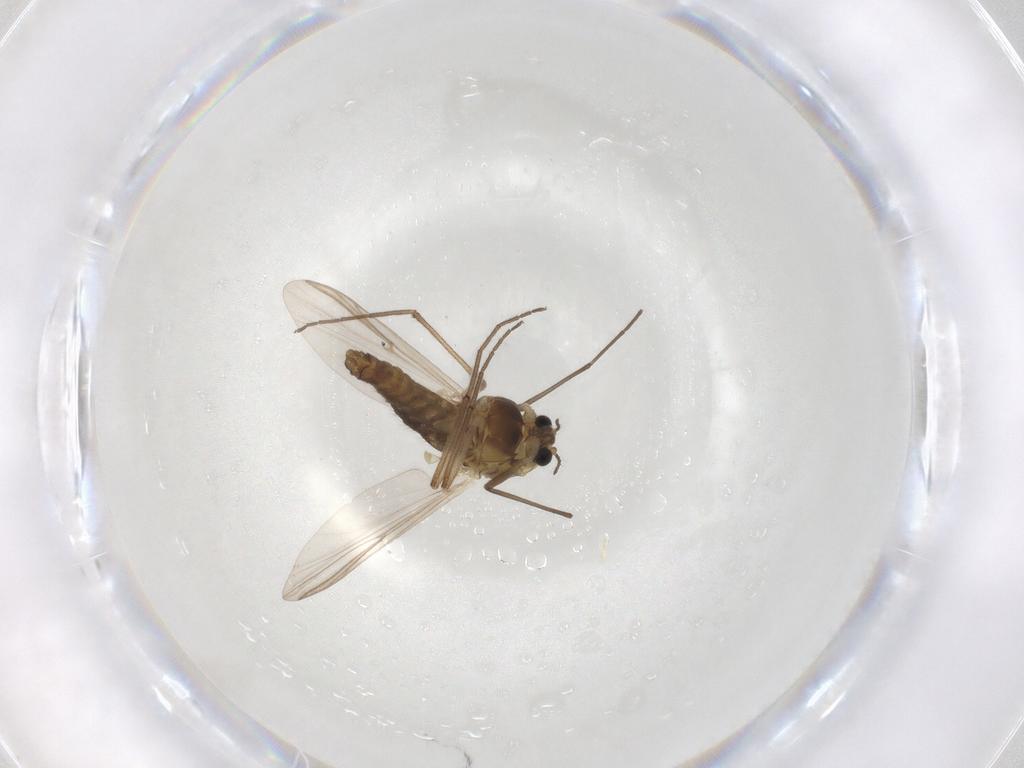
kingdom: Animalia
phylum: Arthropoda
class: Insecta
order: Diptera
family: Chironomidae
